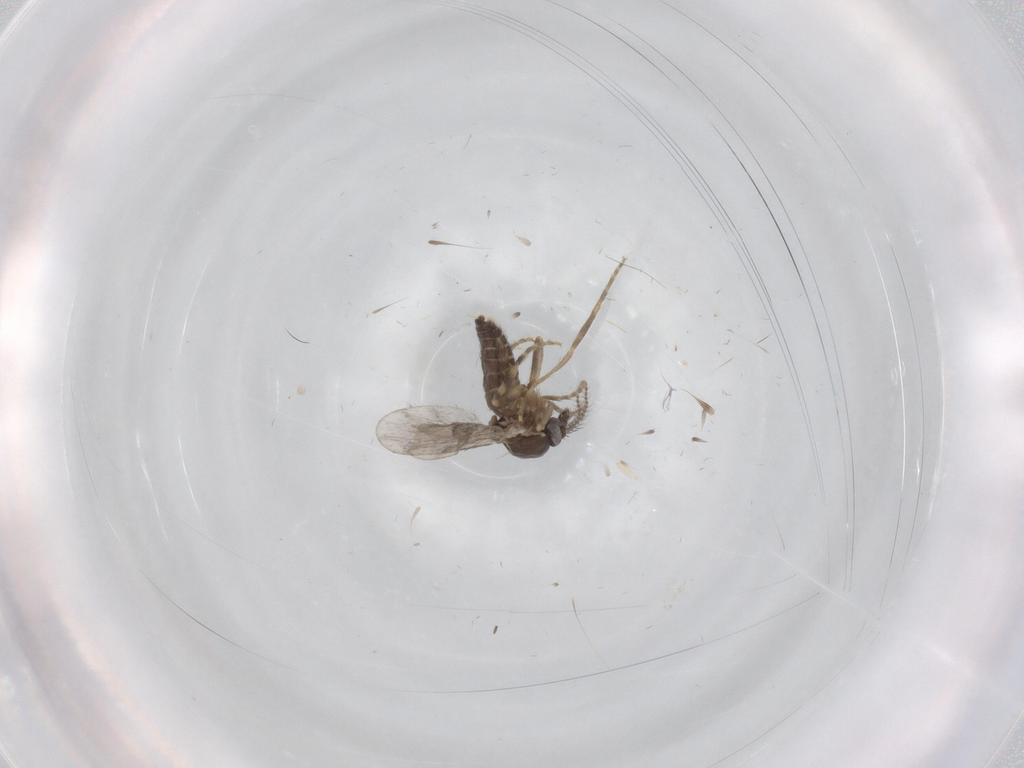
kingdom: Animalia
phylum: Arthropoda
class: Insecta
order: Diptera
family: Ceratopogonidae
